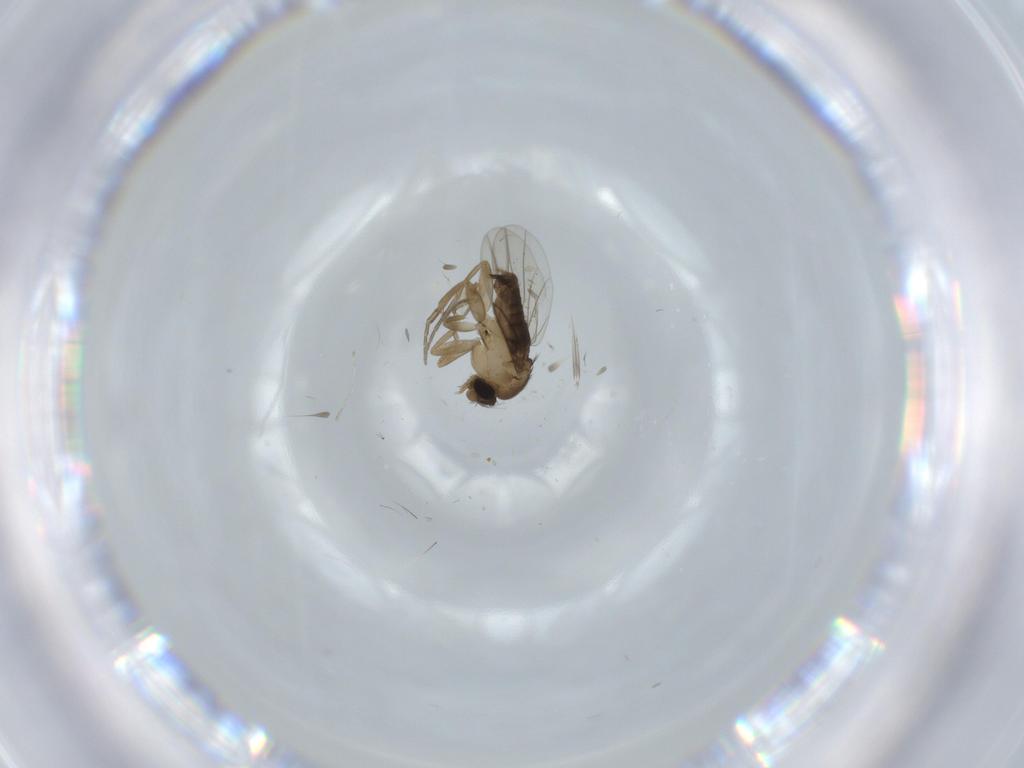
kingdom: Animalia
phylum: Arthropoda
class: Insecta
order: Diptera
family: Phoridae
